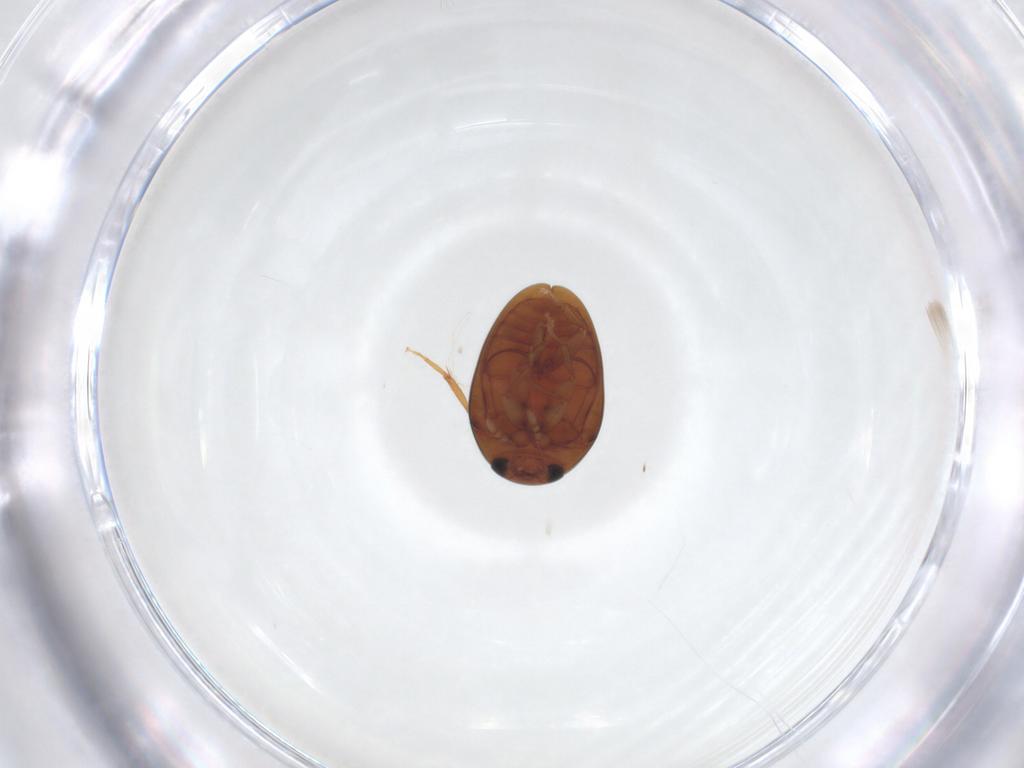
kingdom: Animalia
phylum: Arthropoda
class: Insecta
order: Coleoptera
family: Phalacridae
